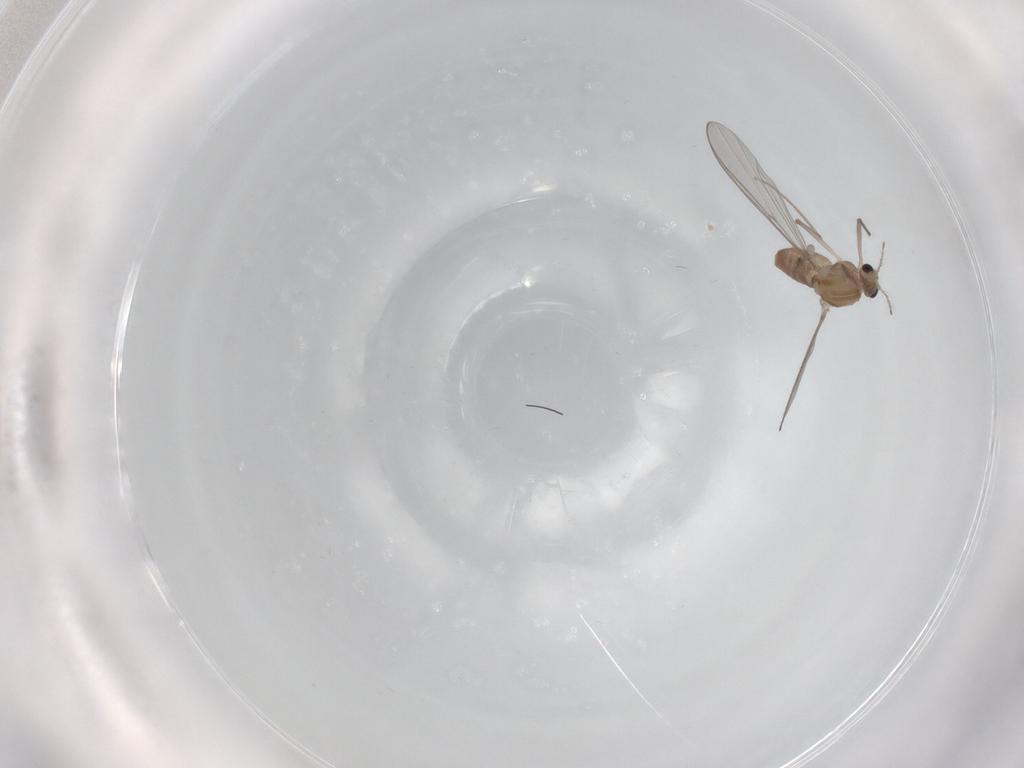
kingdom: Animalia
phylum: Arthropoda
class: Insecta
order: Diptera
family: Chironomidae
